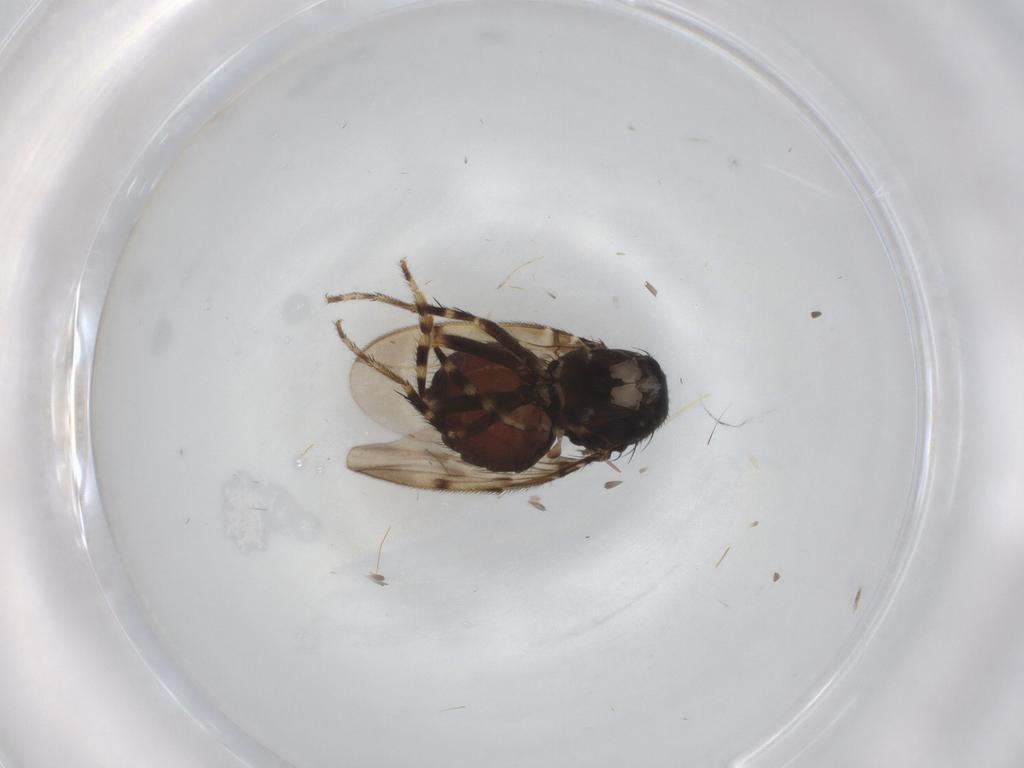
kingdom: Animalia
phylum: Arthropoda
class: Insecta
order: Diptera
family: Sphaeroceridae
